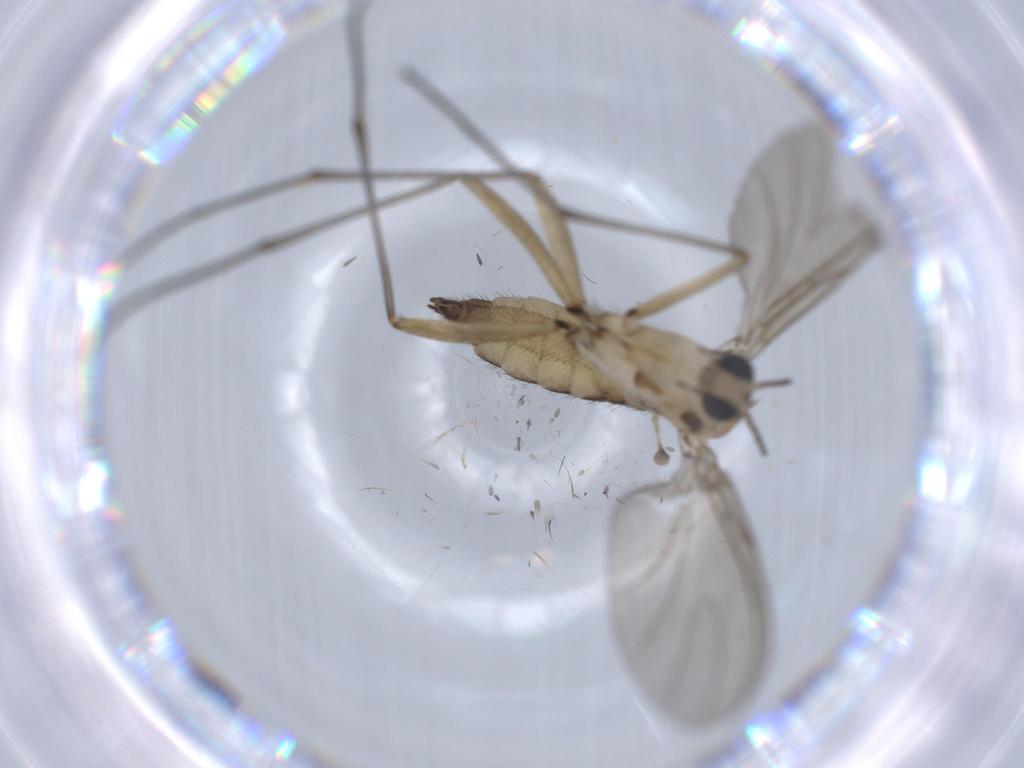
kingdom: Animalia
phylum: Arthropoda
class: Insecta
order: Diptera
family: Sciaridae
